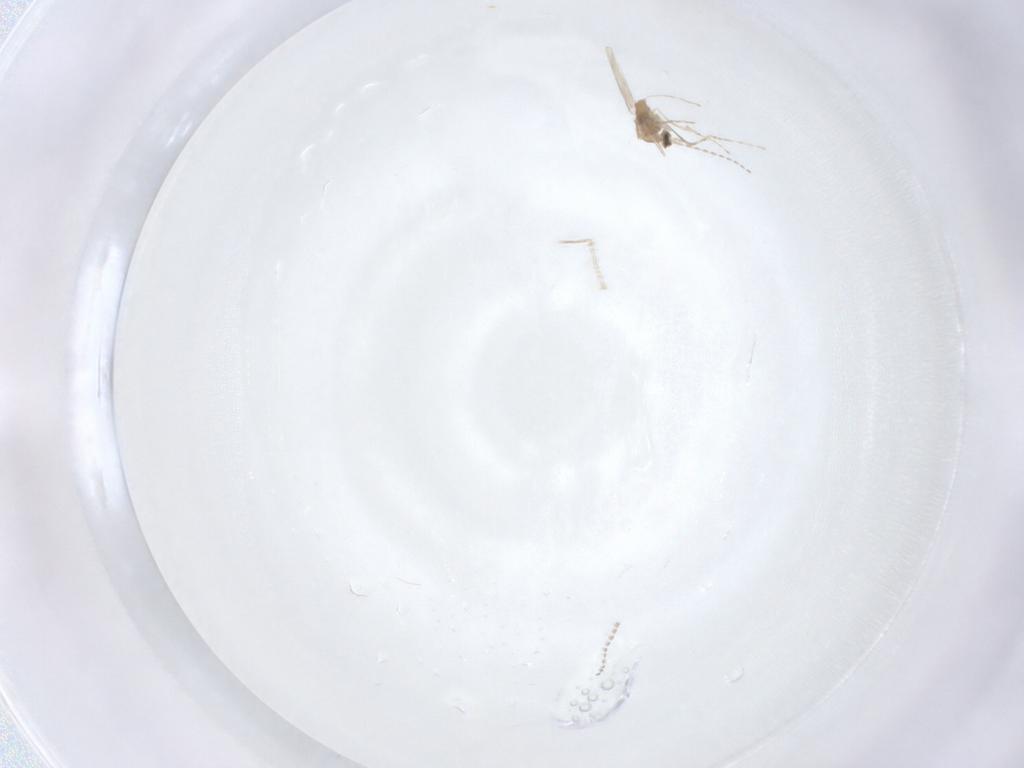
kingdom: Animalia
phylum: Arthropoda
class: Insecta
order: Diptera
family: Cecidomyiidae
